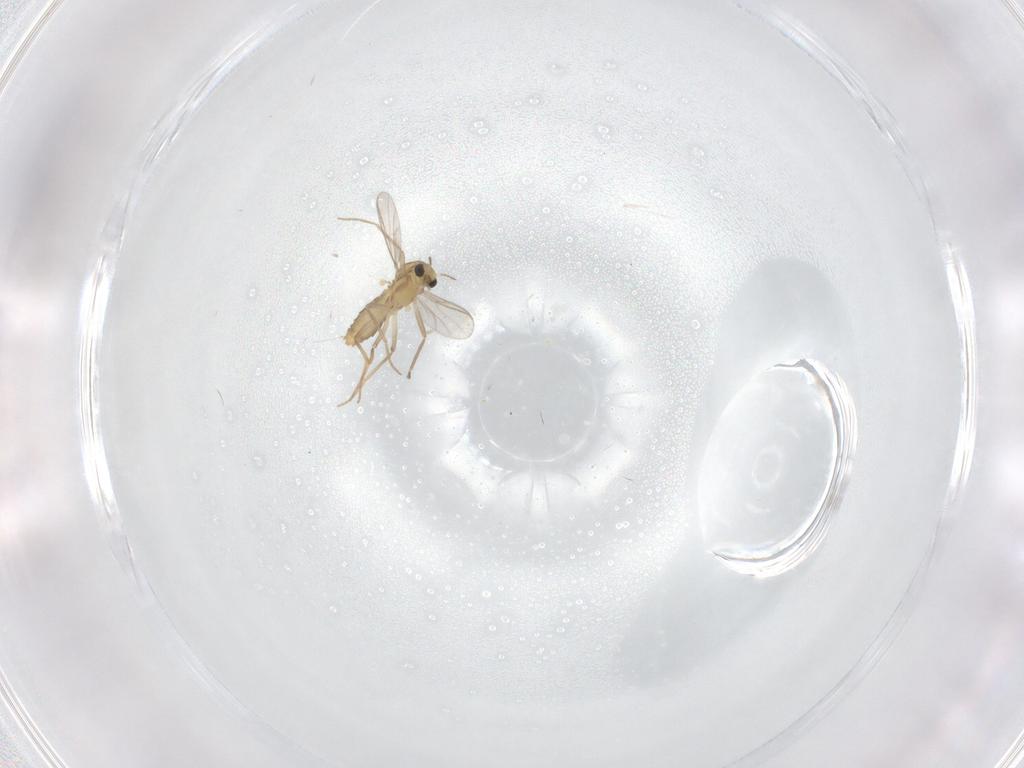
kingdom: Animalia
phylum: Arthropoda
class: Insecta
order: Diptera
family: Chironomidae
